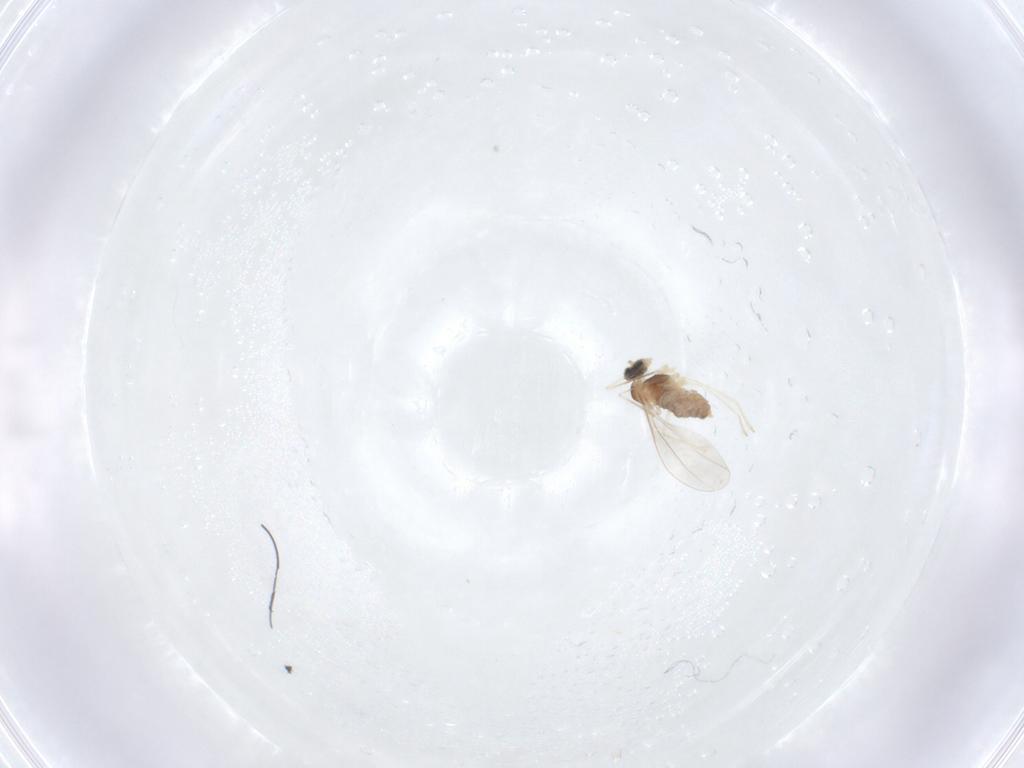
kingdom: Animalia
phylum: Arthropoda
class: Insecta
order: Diptera
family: Cecidomyiidae
